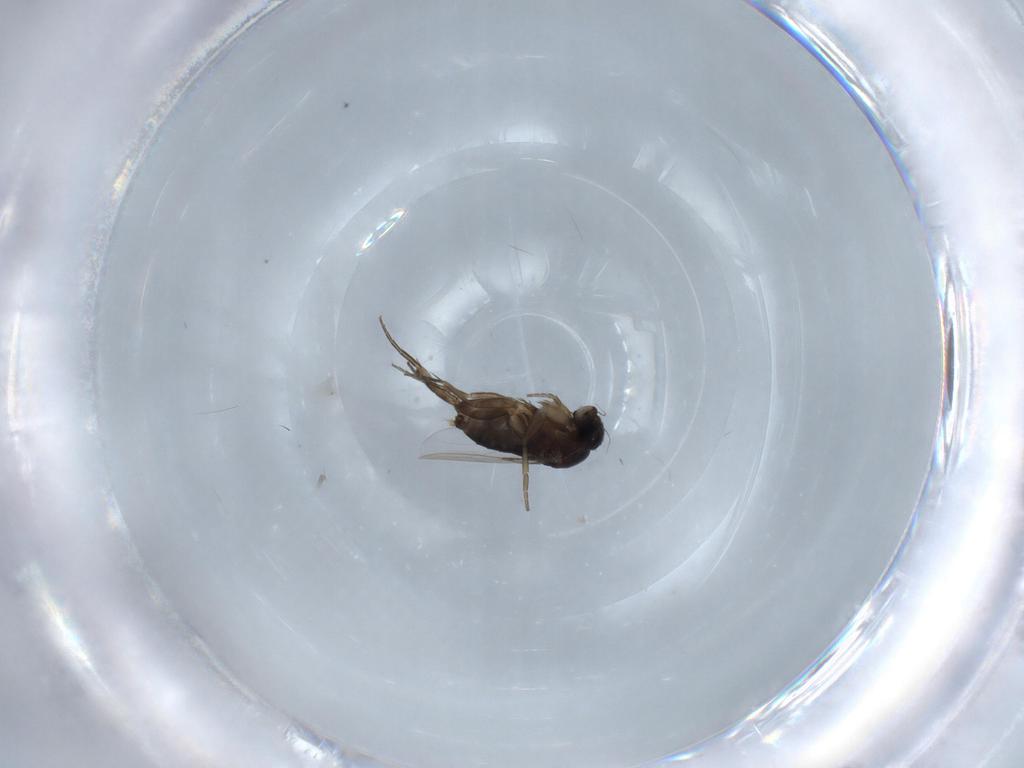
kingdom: Animalia
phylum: Arthropoda
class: Insecta
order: Diptera
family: Phoridae
